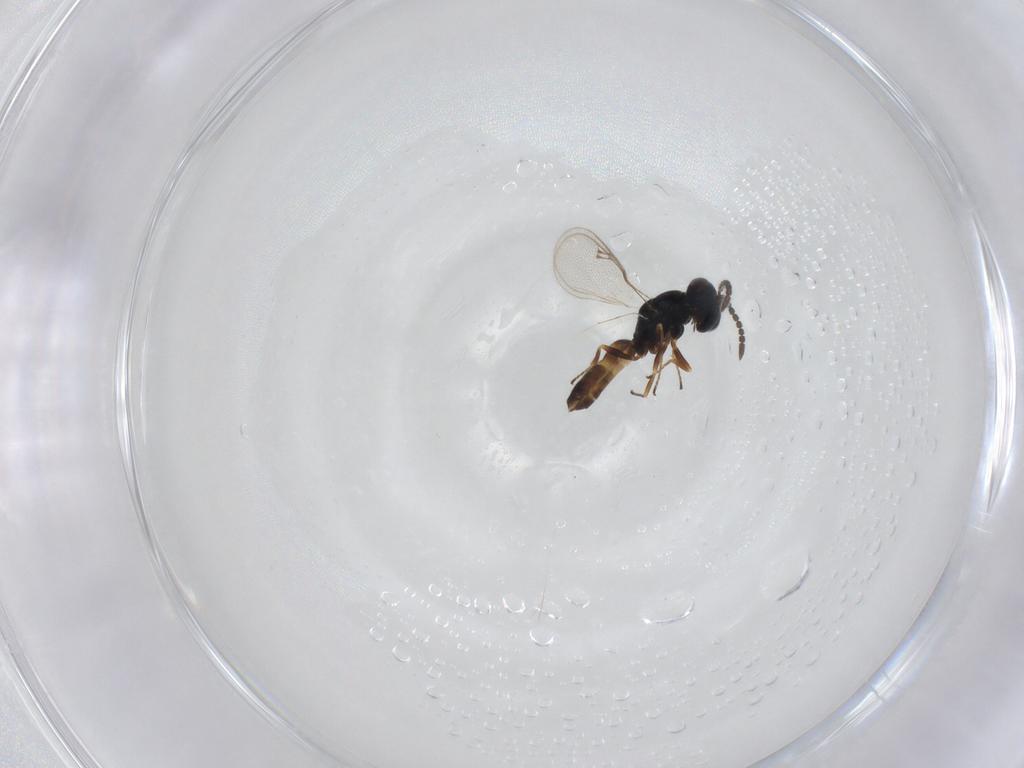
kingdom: Animalia
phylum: Arthropoda
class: Insecta
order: Hymenoptera
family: Pteromalidae
